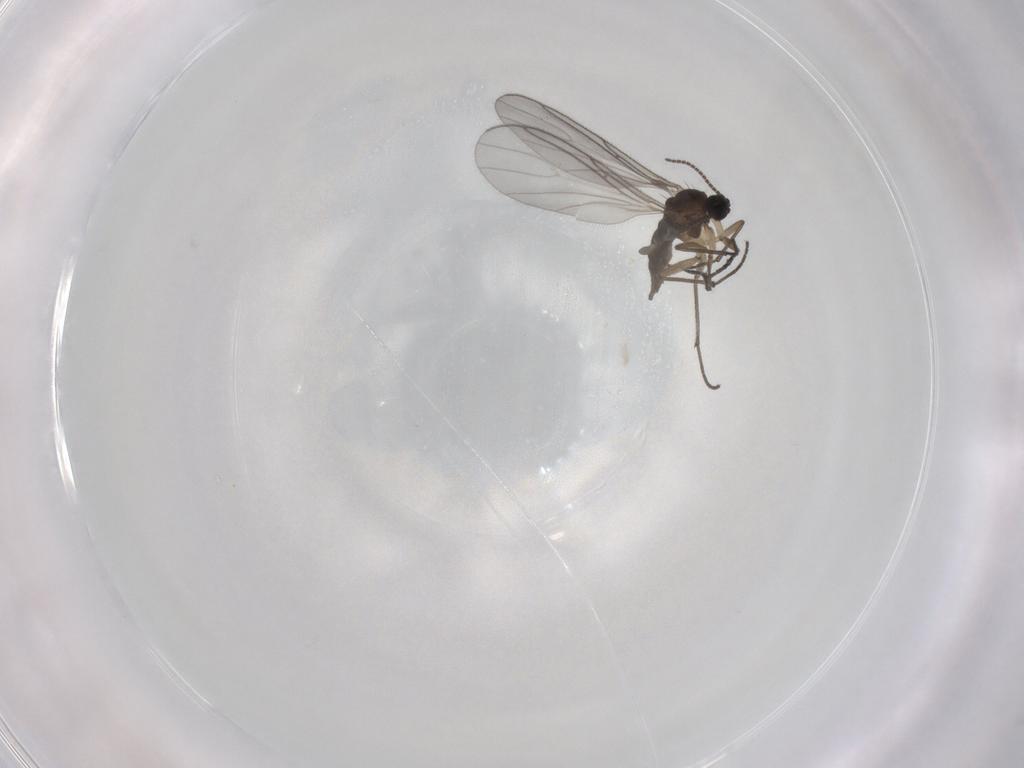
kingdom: Animalia
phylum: Arthropoda
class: Insecta
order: Diptera
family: Sciaridae
